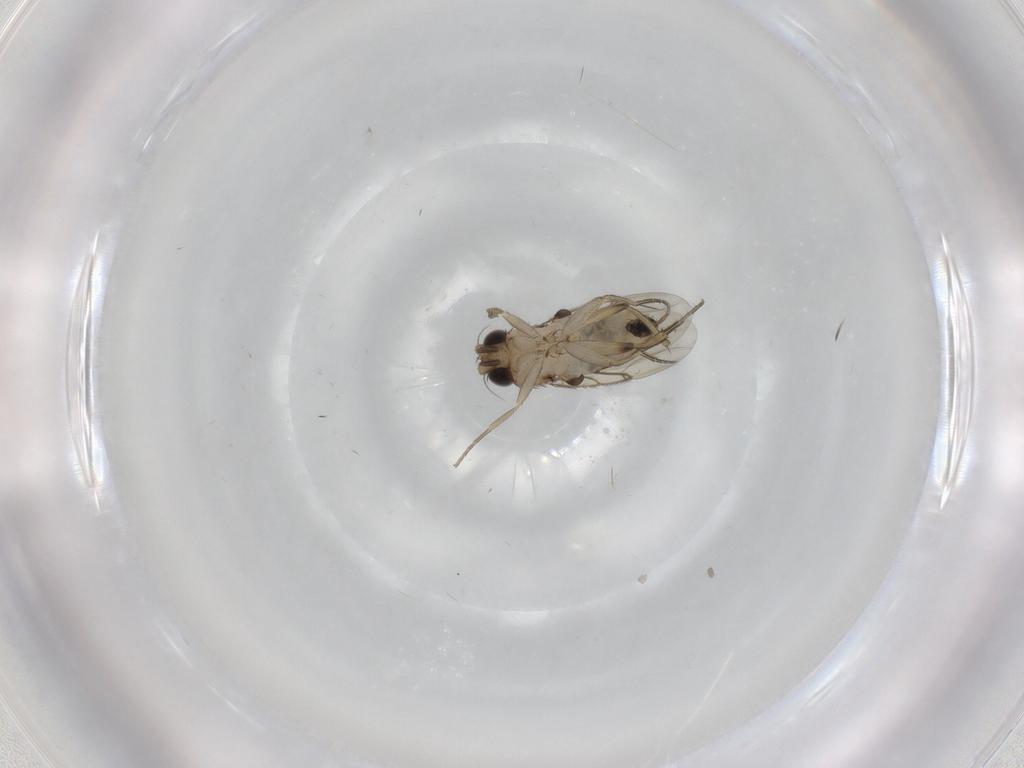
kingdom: Animalia
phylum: Arthropoda
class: Insecta
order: Diptera
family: Phoridae
